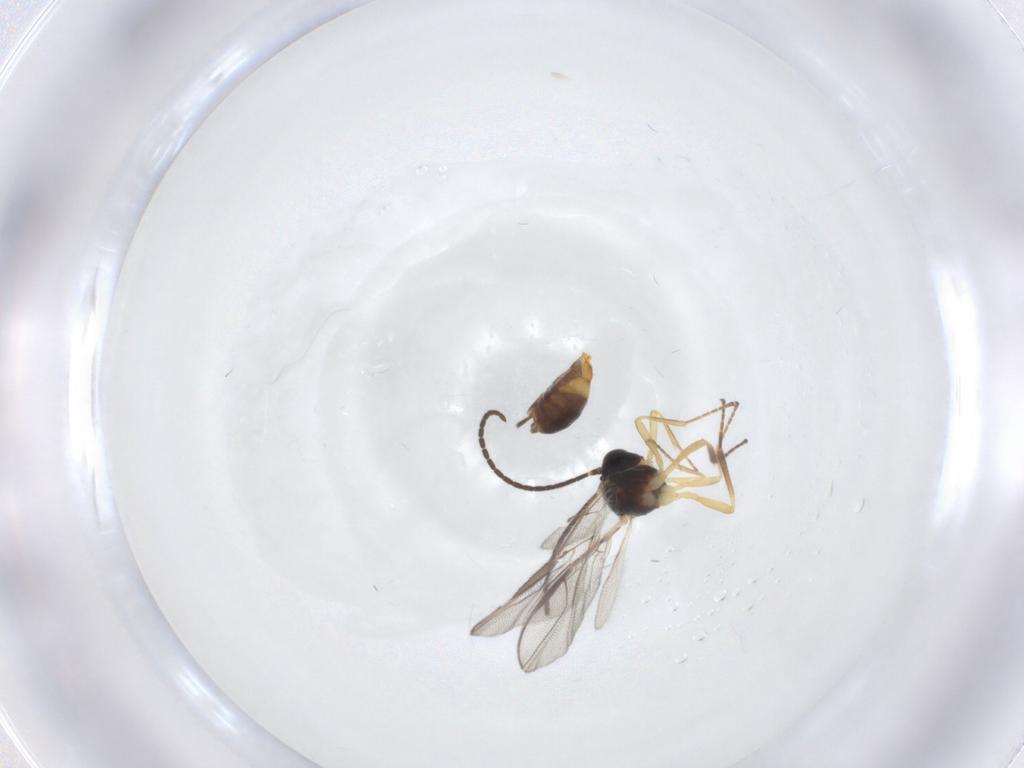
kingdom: Animalia
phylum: Arthropoda
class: Insecta
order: Hymenoptera
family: Braconidae
